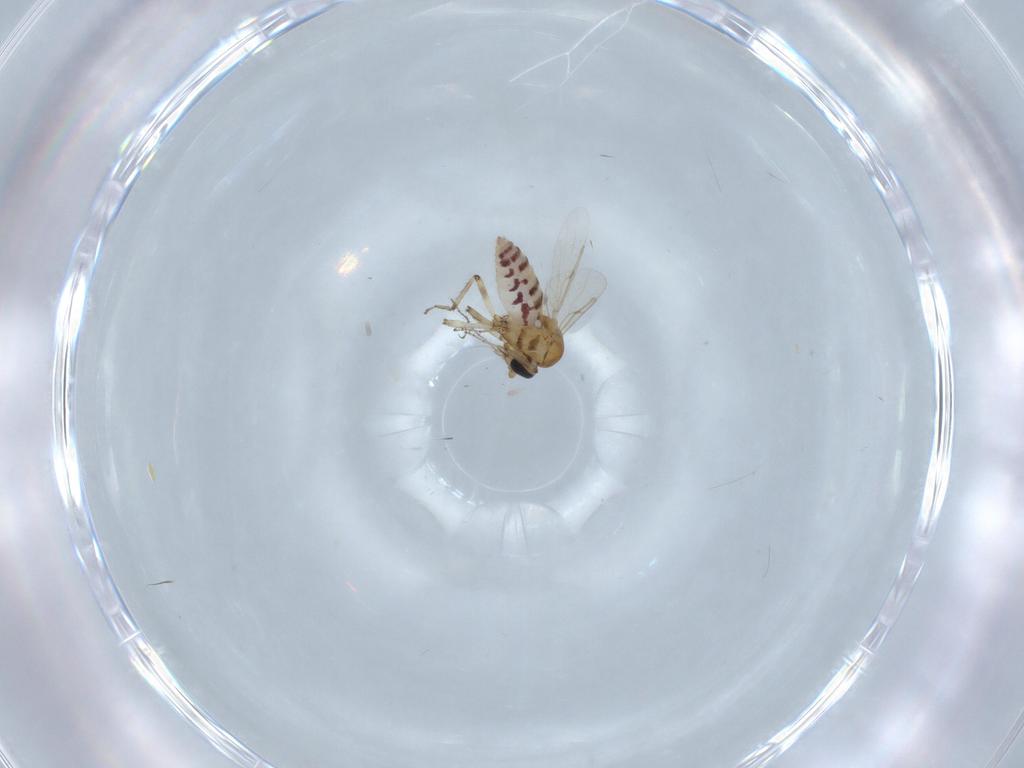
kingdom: Animalia
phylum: Arthropoda
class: Insecta
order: Diptera
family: Ceratopogonidae
